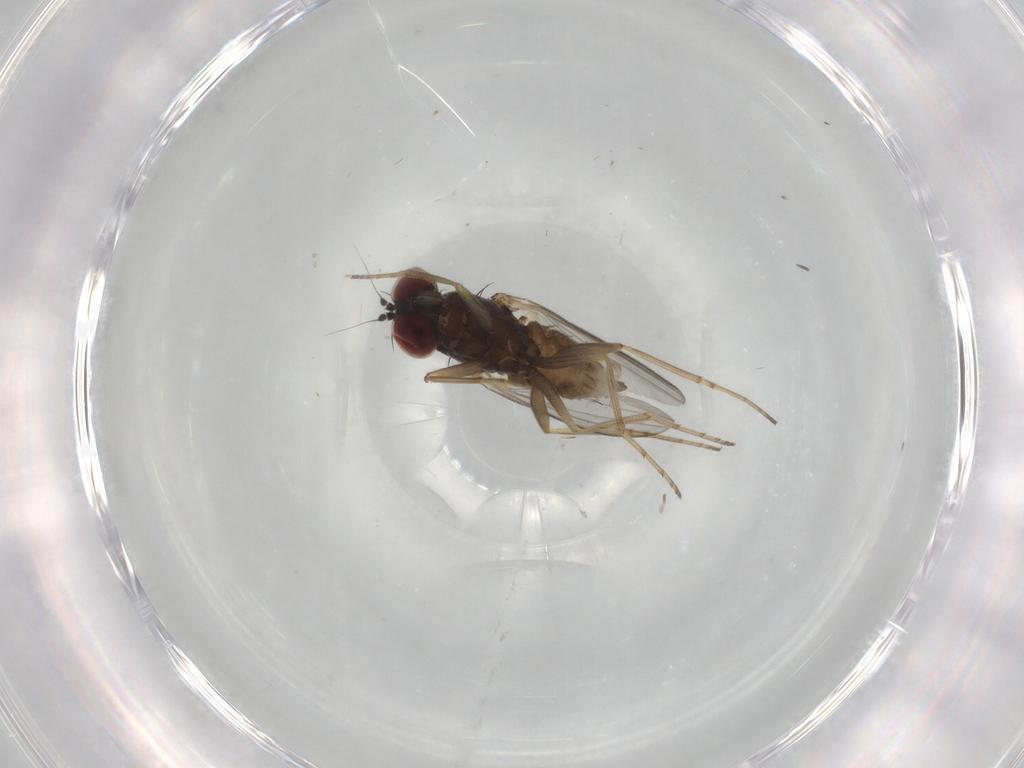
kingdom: Animalia
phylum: Arthropoda
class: Insecta
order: Diptera
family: Dolichopodidae
